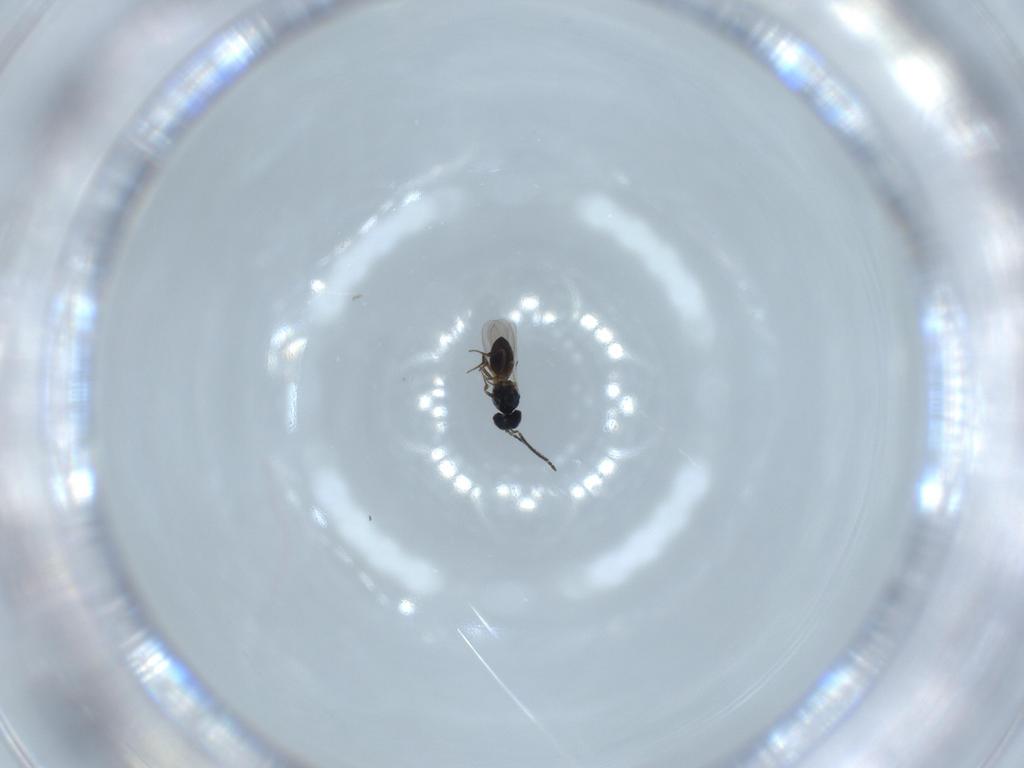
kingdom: Animalia
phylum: Arthropoda
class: Insecta
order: Hymenoptera
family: Scelionidae
